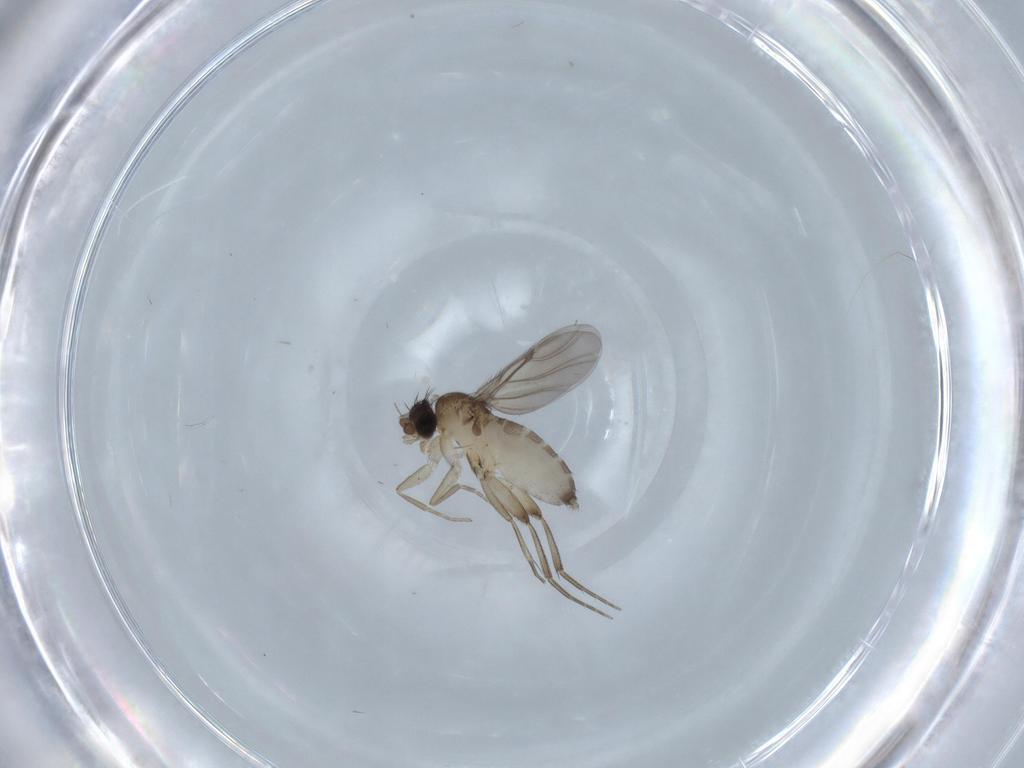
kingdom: Animalia
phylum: Arthropoda
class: Insecta
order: Diptera
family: Phoridae
